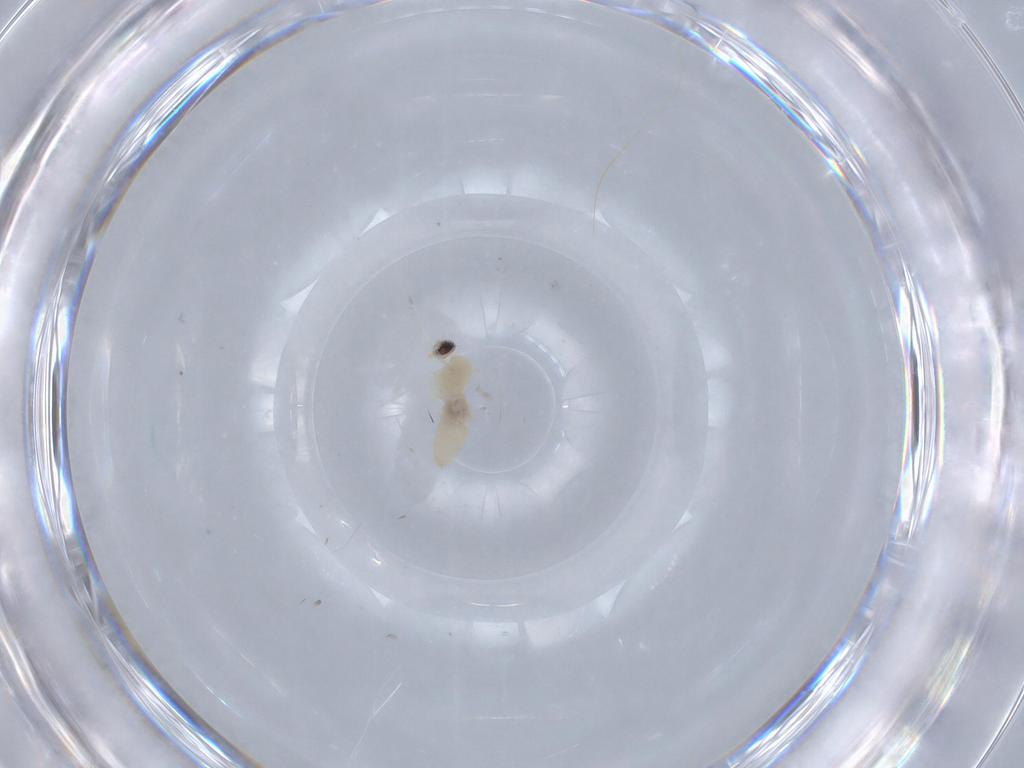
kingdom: Animalia
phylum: Arthropoda
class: Insecta
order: Diptera
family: Cecidomyiidae
